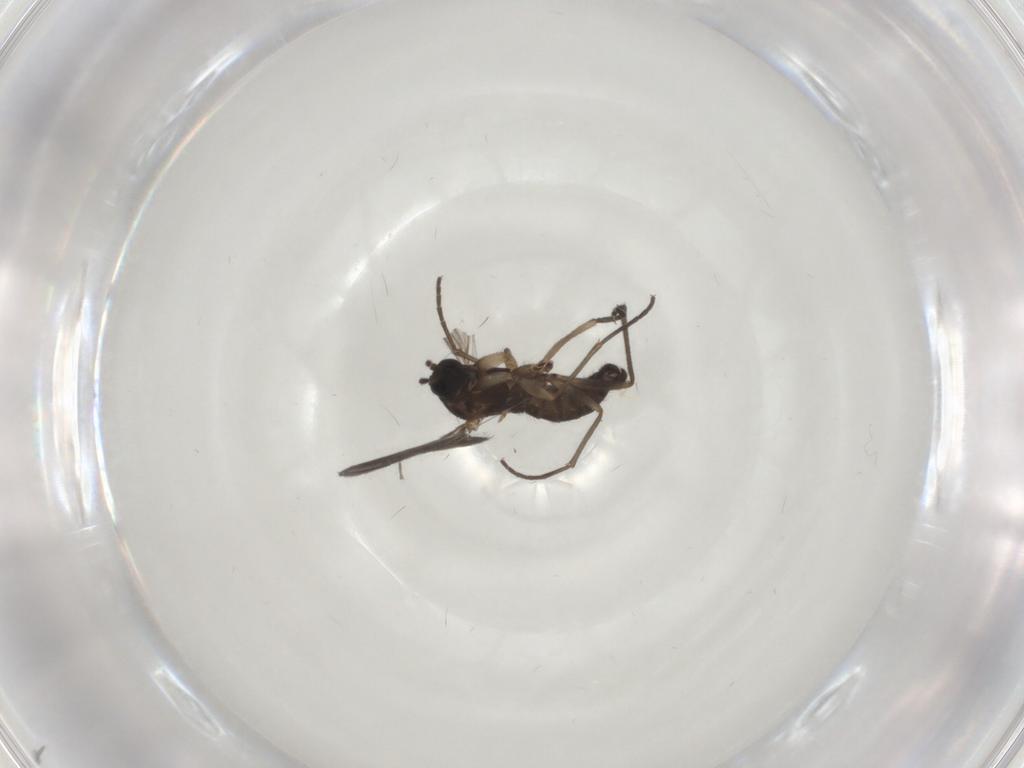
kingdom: Animalia
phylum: Arthropoda
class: Insecta
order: Diptera
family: Sciaridae
